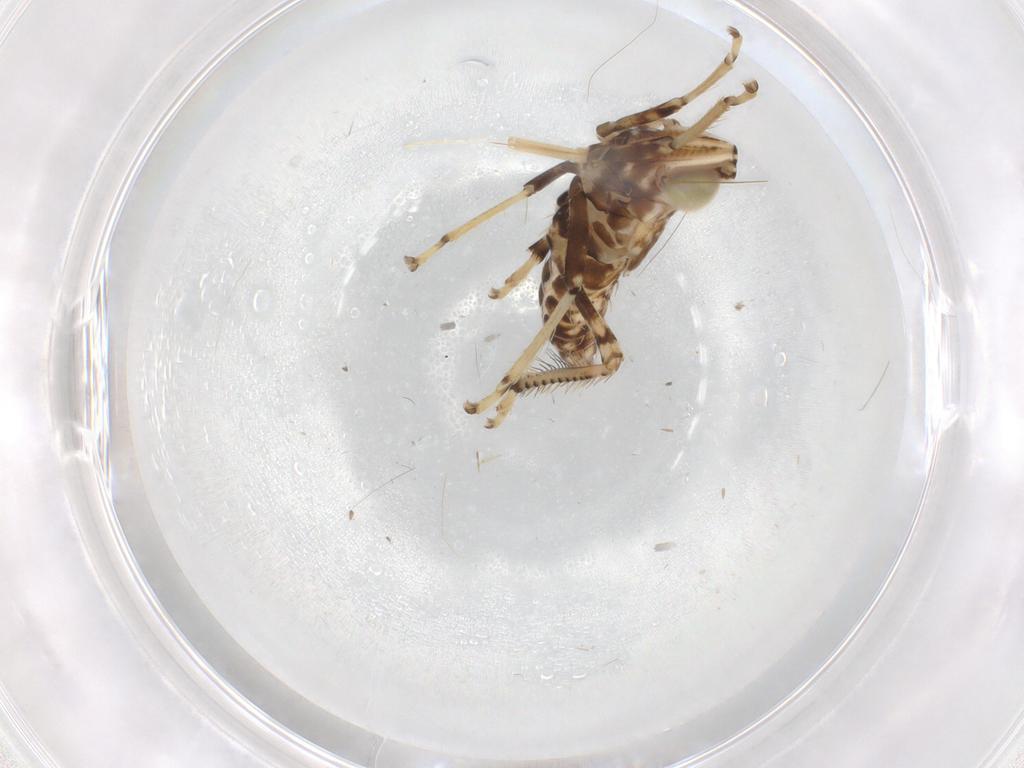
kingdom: Animalia
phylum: Arthropoda
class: Insecta
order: Hemiptera
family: Cicadellidae
